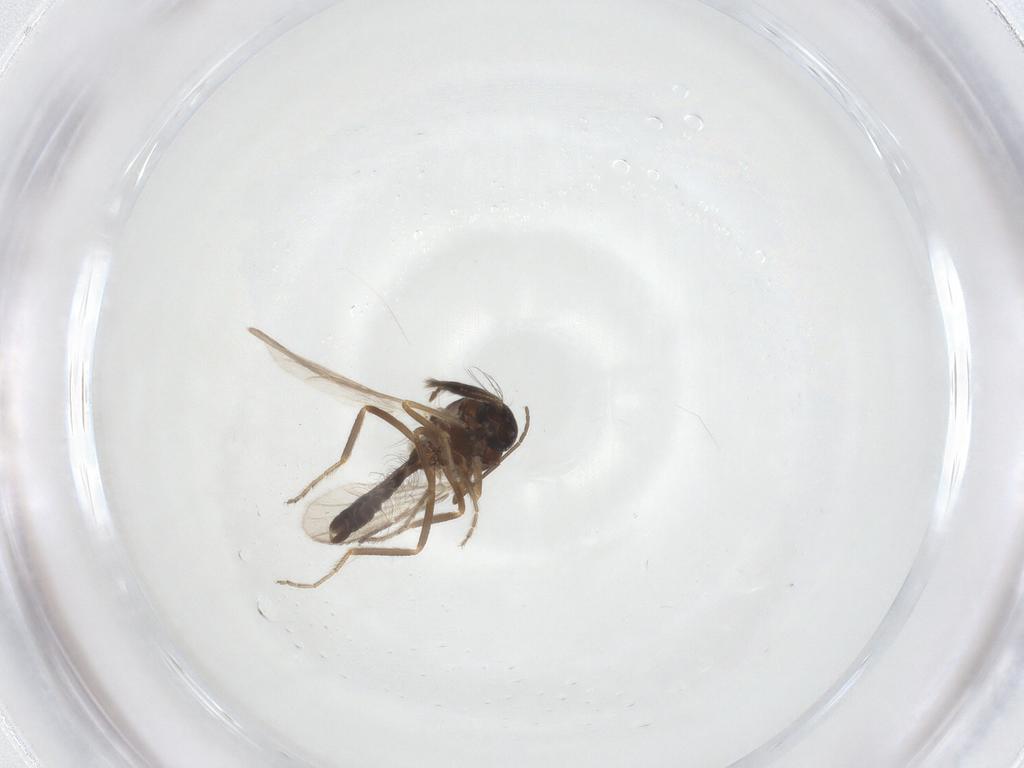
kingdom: Animalia
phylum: Arthropoda
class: Insecta
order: Diptera
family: Ceratopogonidae
